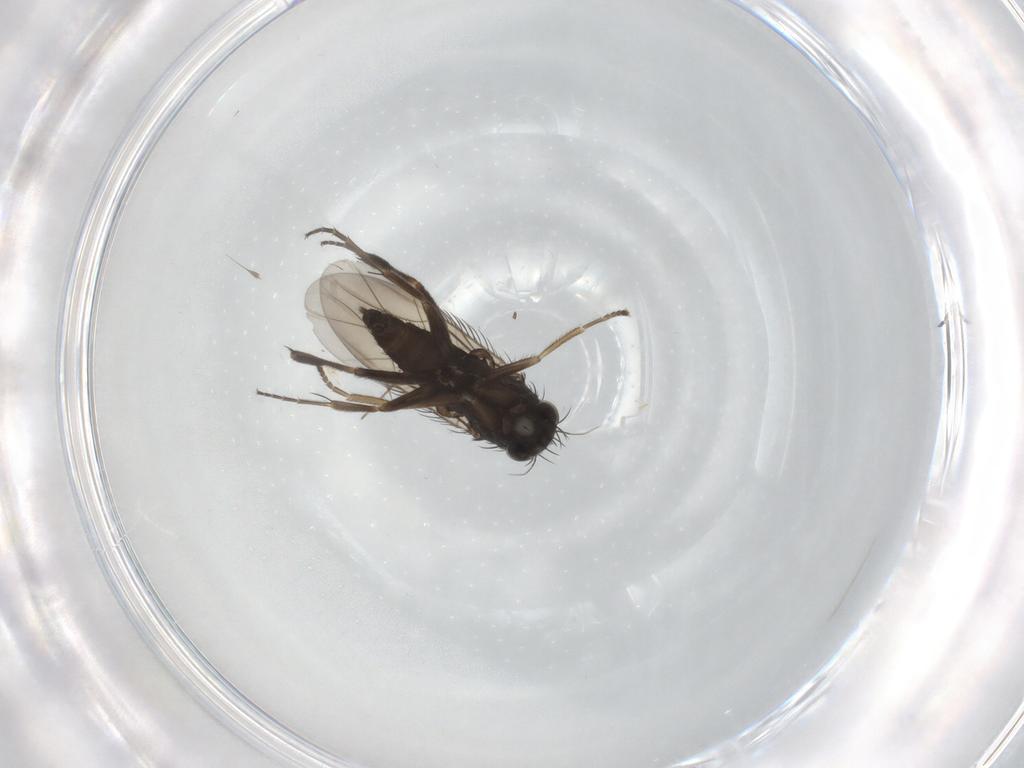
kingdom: Animalia
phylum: Arthropoda
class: Insecta
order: Diptera
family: Phoridae
